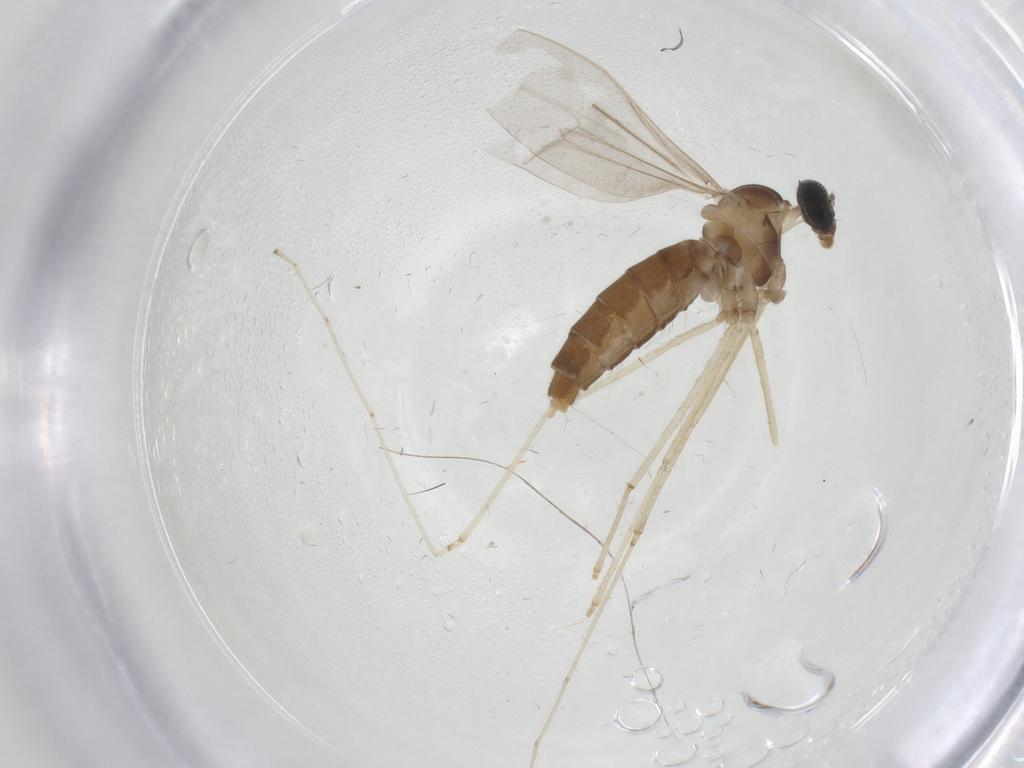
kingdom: Animalia
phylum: Arthropoda
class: Insecta
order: Diptera
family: Cecidomyiidae
